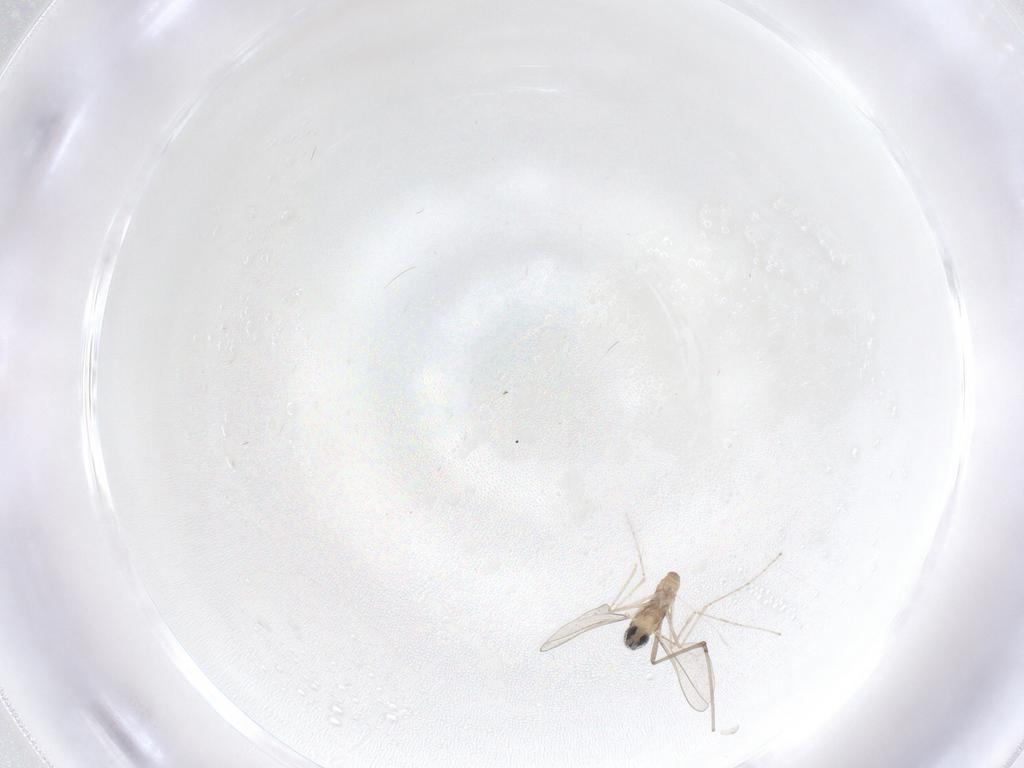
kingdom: Animalia
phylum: Arthropoda
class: Insecta
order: Diptera
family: Cecidomyiidae
